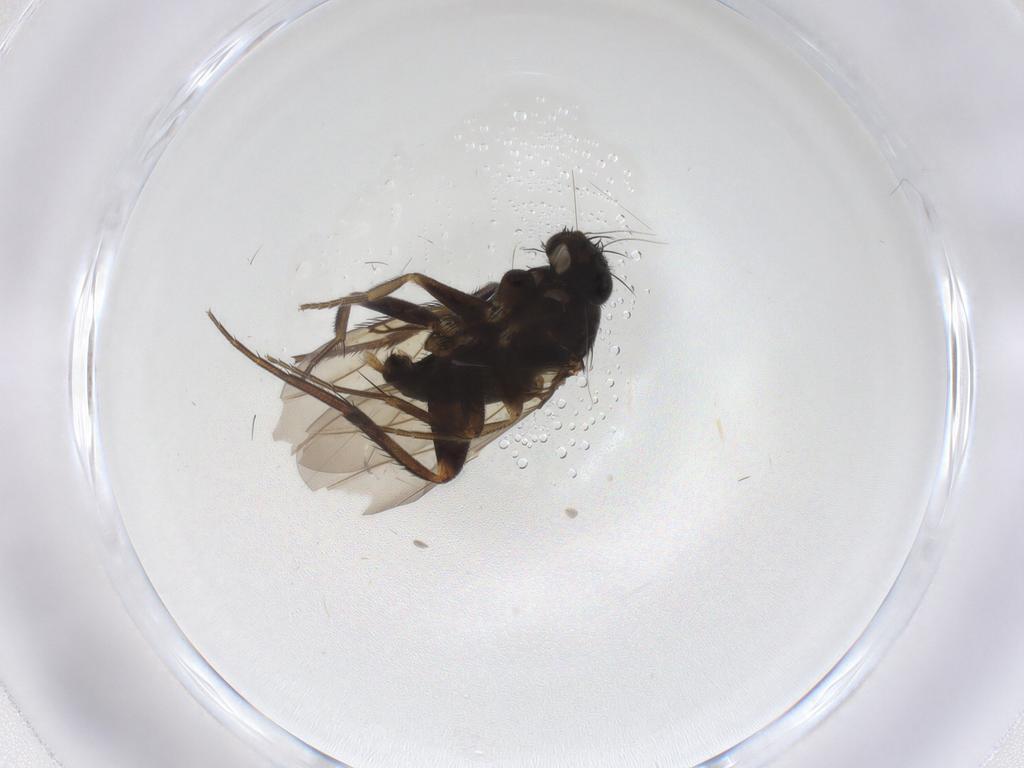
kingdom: Animalia
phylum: Arthropoda
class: Insecta
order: Diptera
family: Phoridae
